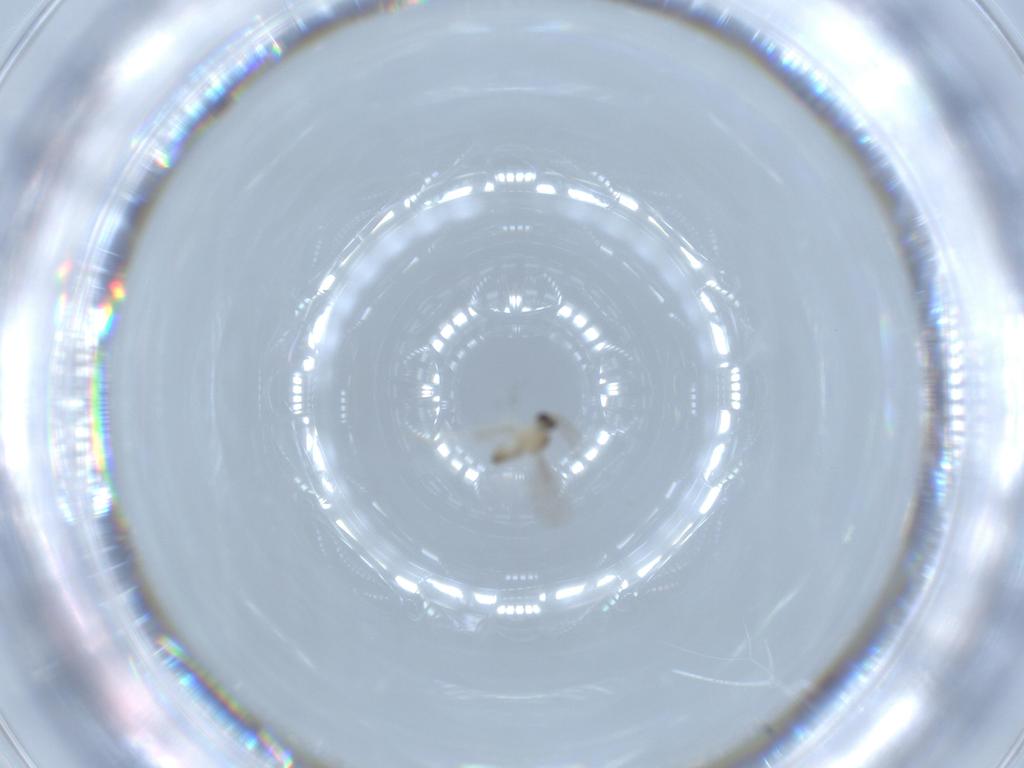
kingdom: Animalia
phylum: Arthropoda
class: Insecta
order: Diptera
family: Cecidomyiidae
